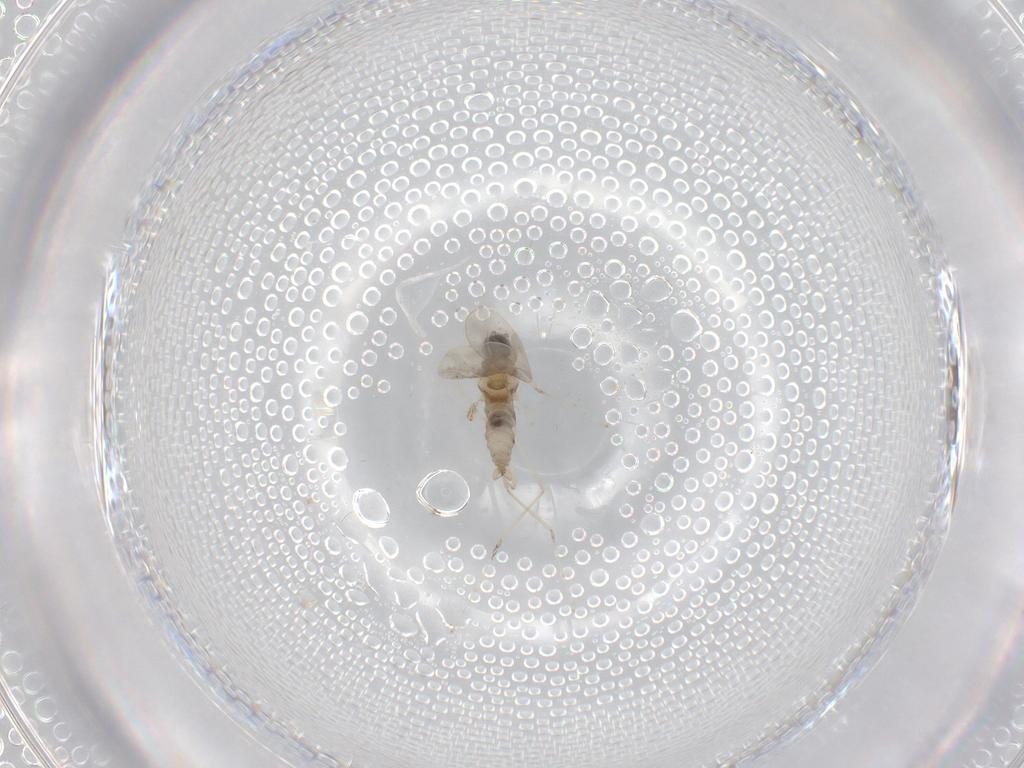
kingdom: Animalia
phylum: Arthropoda
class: Insecta
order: Diptera
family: Cecidomyiidae
